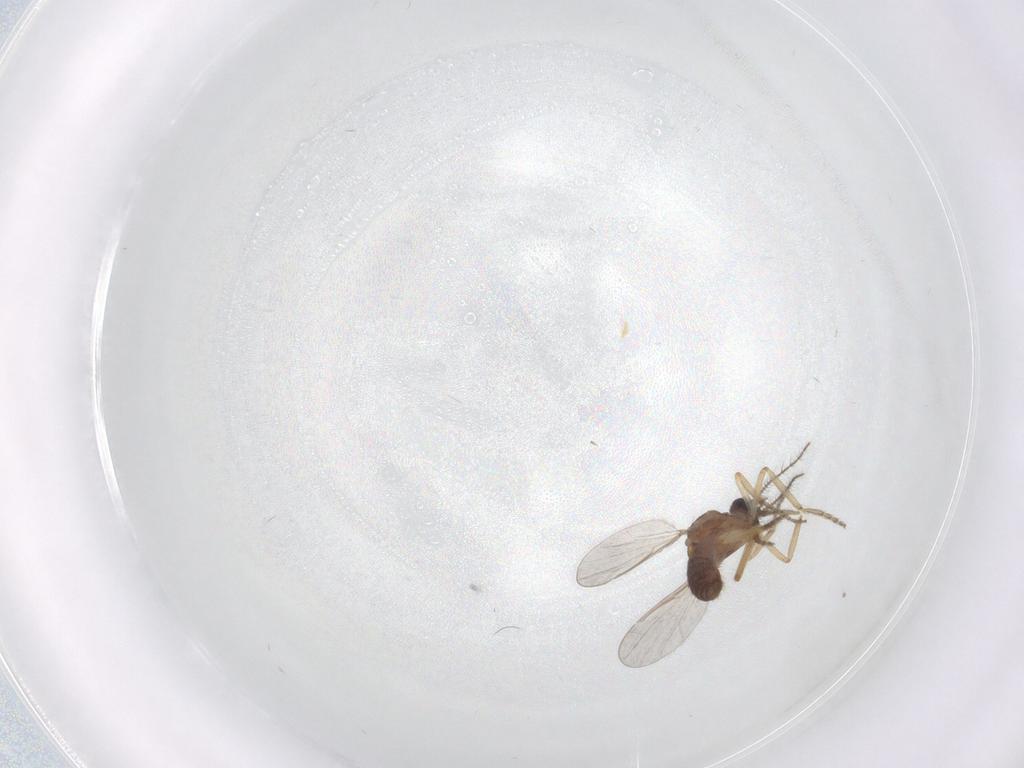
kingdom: Animalia
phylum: Arthropoda
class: Insecta
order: Diptera
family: Ceratopogonidae
